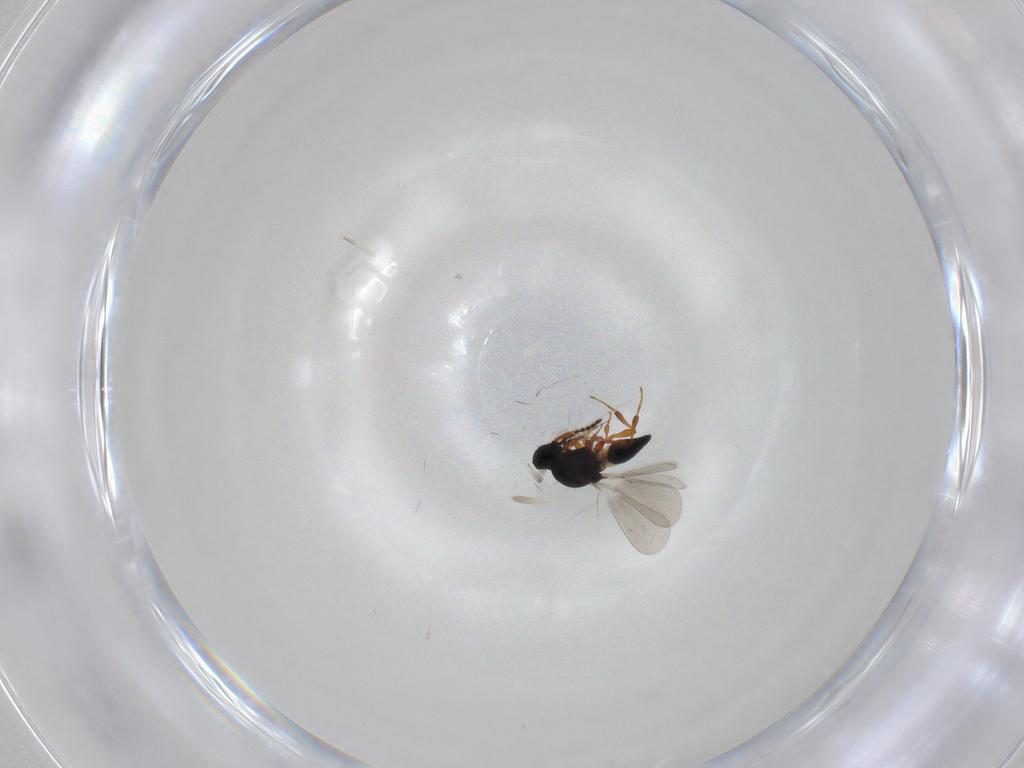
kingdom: Animalia
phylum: Arthropoda
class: Insecta
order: Hymenoptera
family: Platygastridae
